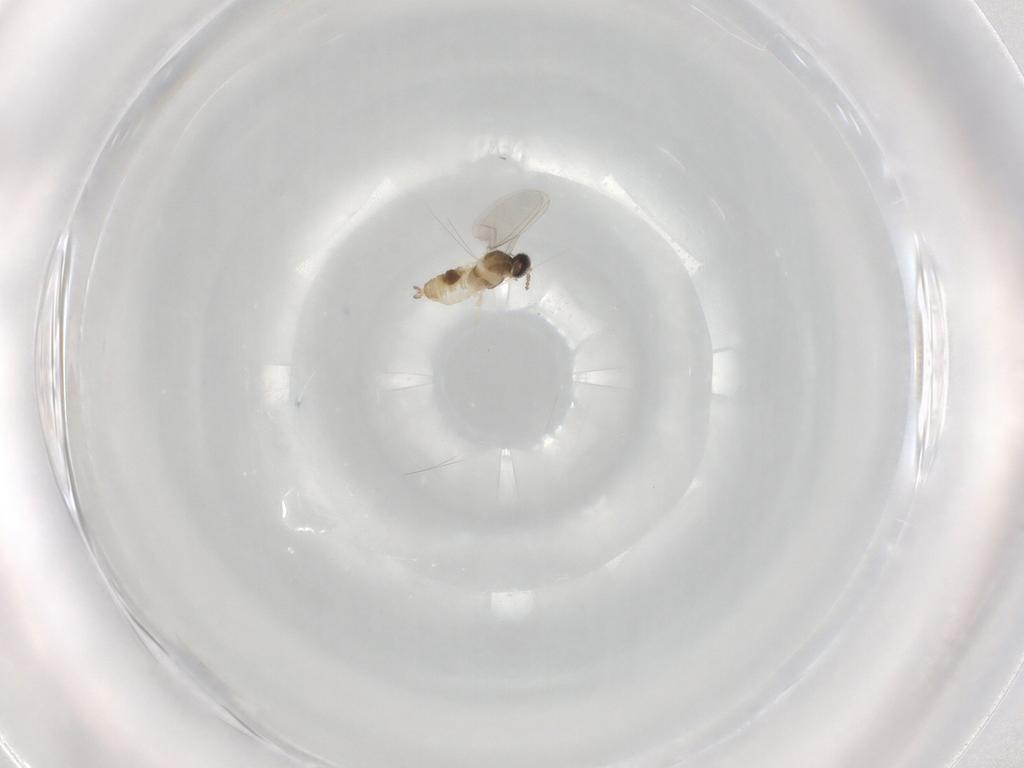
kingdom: Animalia
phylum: Arthropoda
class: Insecta
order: Diptera
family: Cecidomyiidae
